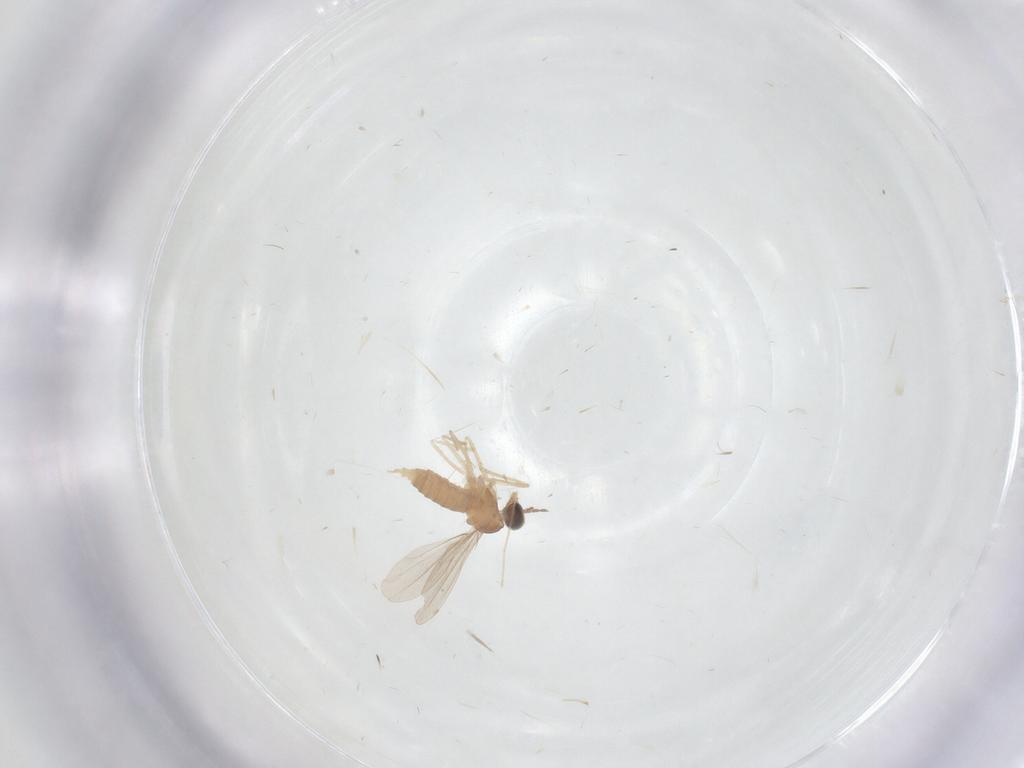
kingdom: Animalia
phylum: Arthropoda
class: Insecta
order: Diptera
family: Cecidomyiidae
